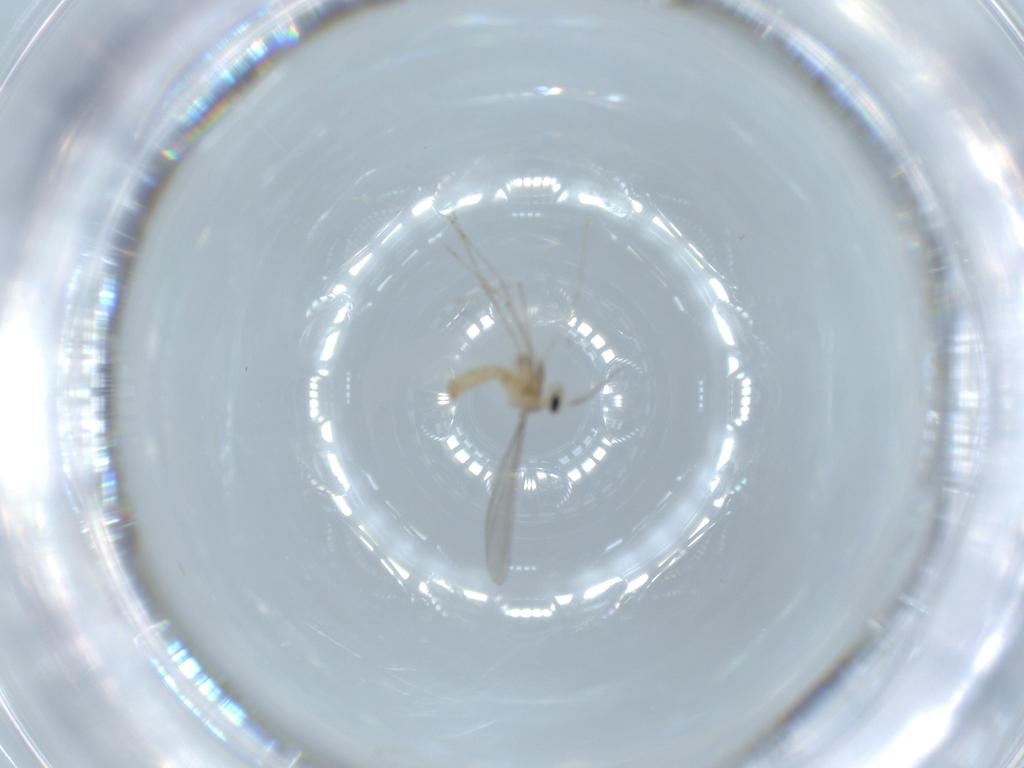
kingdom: Animalia
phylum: Arthropoda
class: Insecta
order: Diptera
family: Cecidomyiidae
